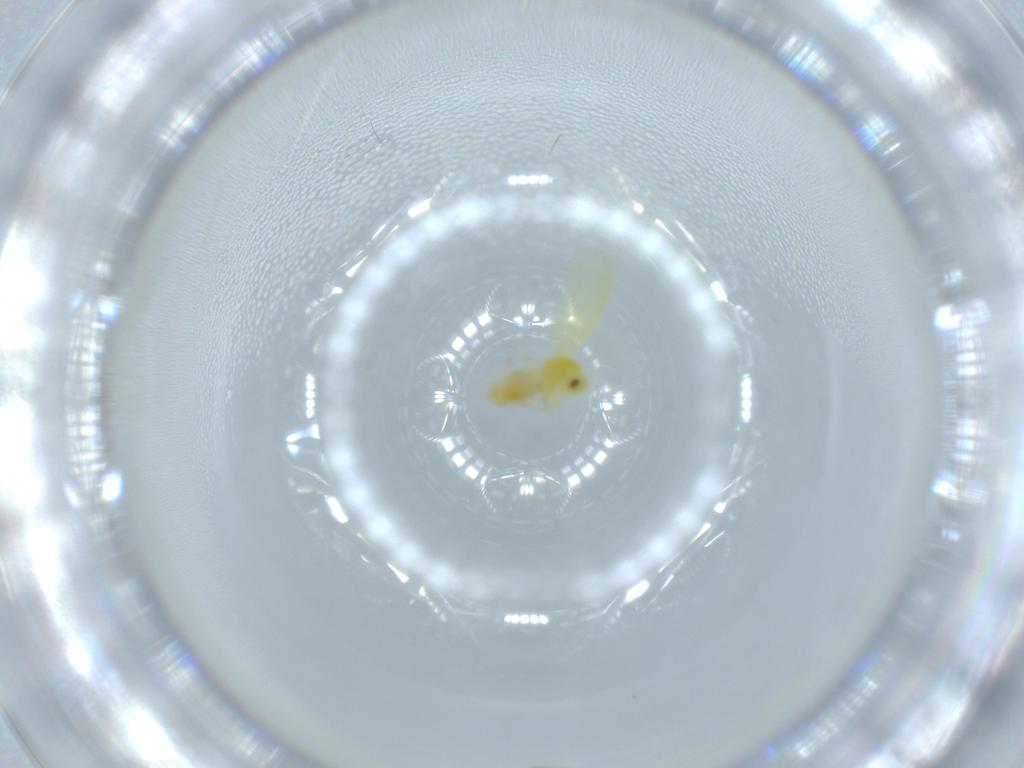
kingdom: Animalia
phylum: Arthropoda
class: Insecta
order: Hemiptera
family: Aleyrodidae
